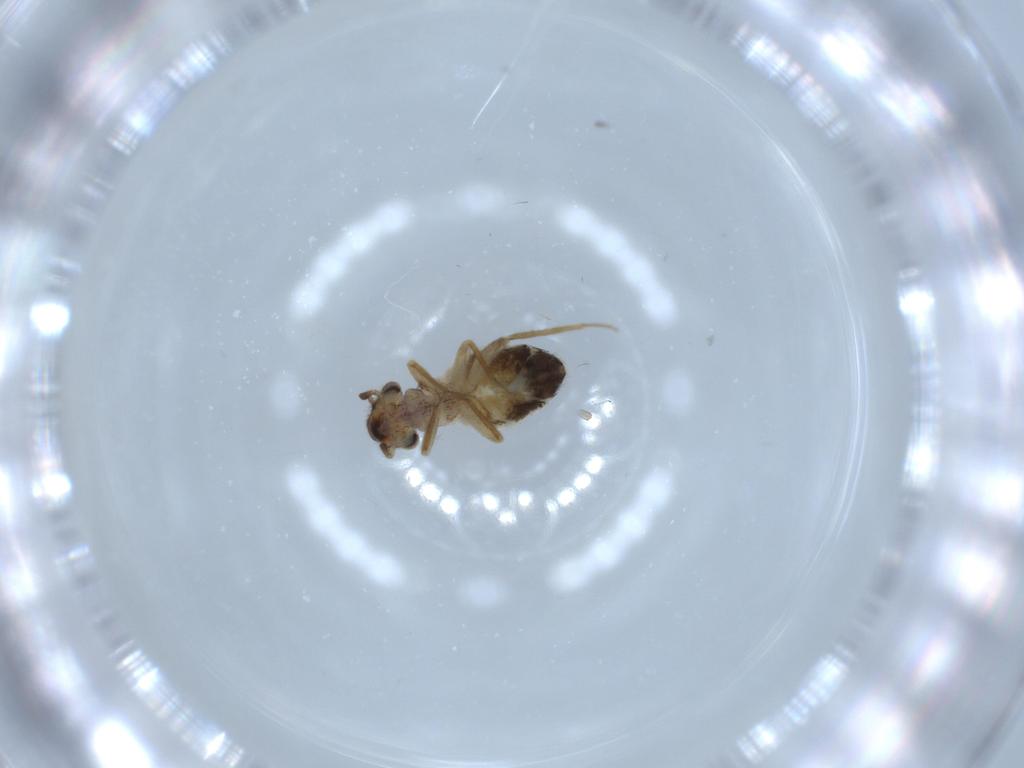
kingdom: Animalia
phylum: Arthropoda
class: Insecta
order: Psocodea
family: Lepidopsocidae
